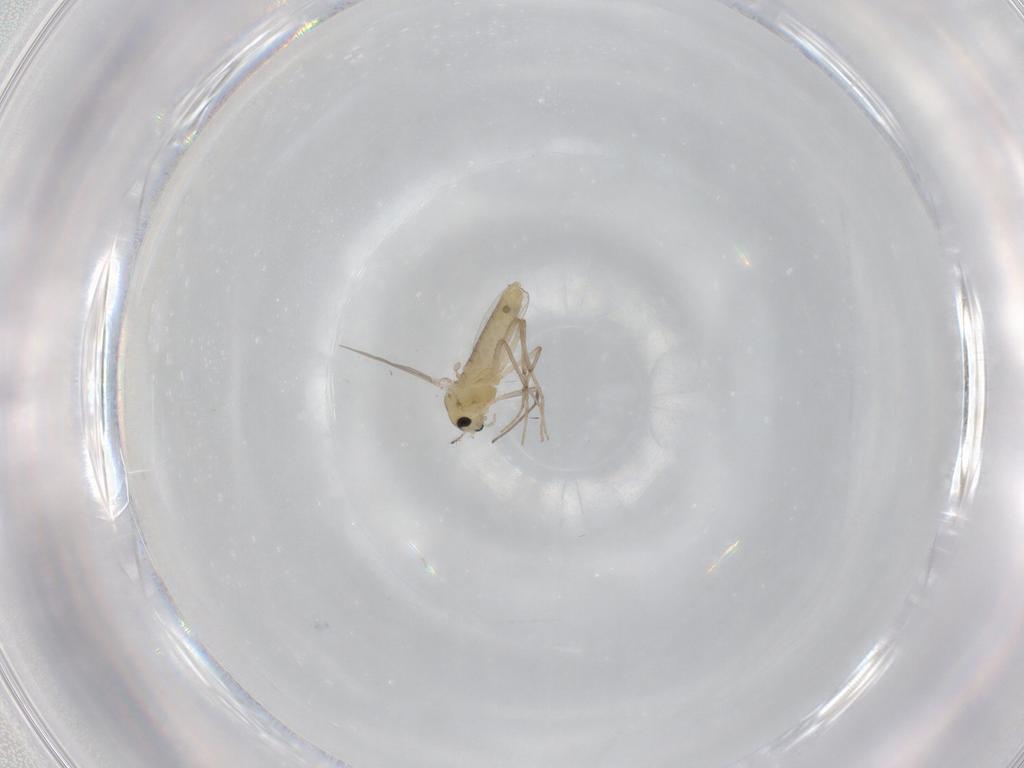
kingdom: Animalia
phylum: Arthropoda
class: Insecta
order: Diptera
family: Chironomidae
